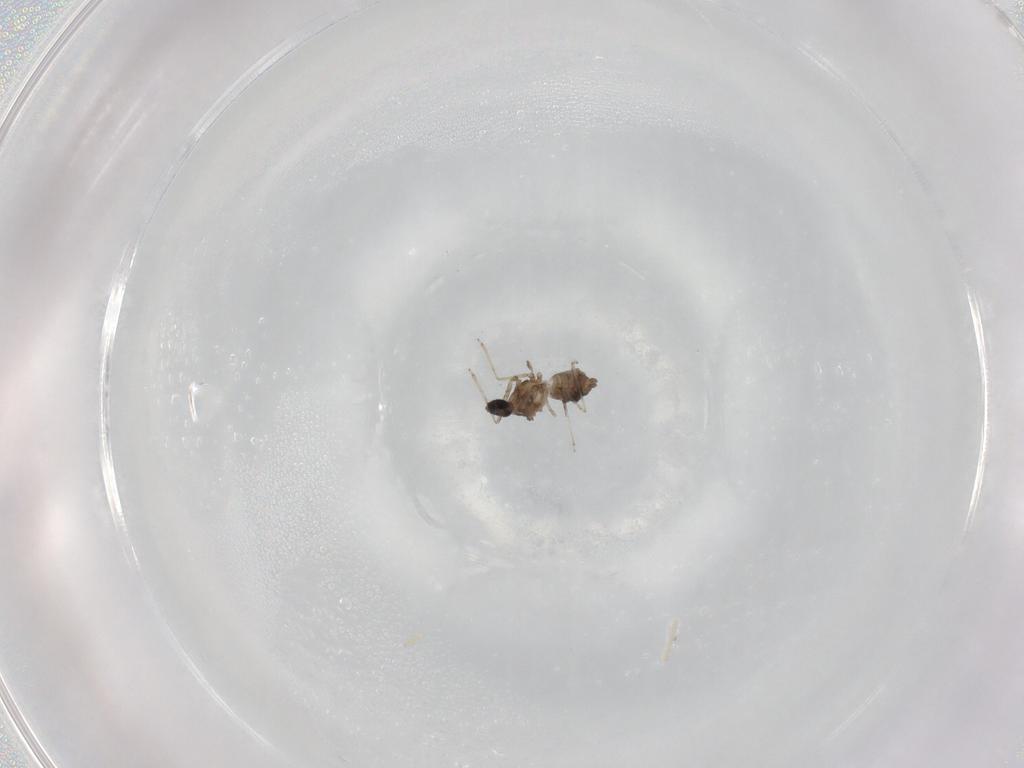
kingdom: Animalia
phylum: Arthropoda
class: Insecta
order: Diptera
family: Cecidomyiidae
